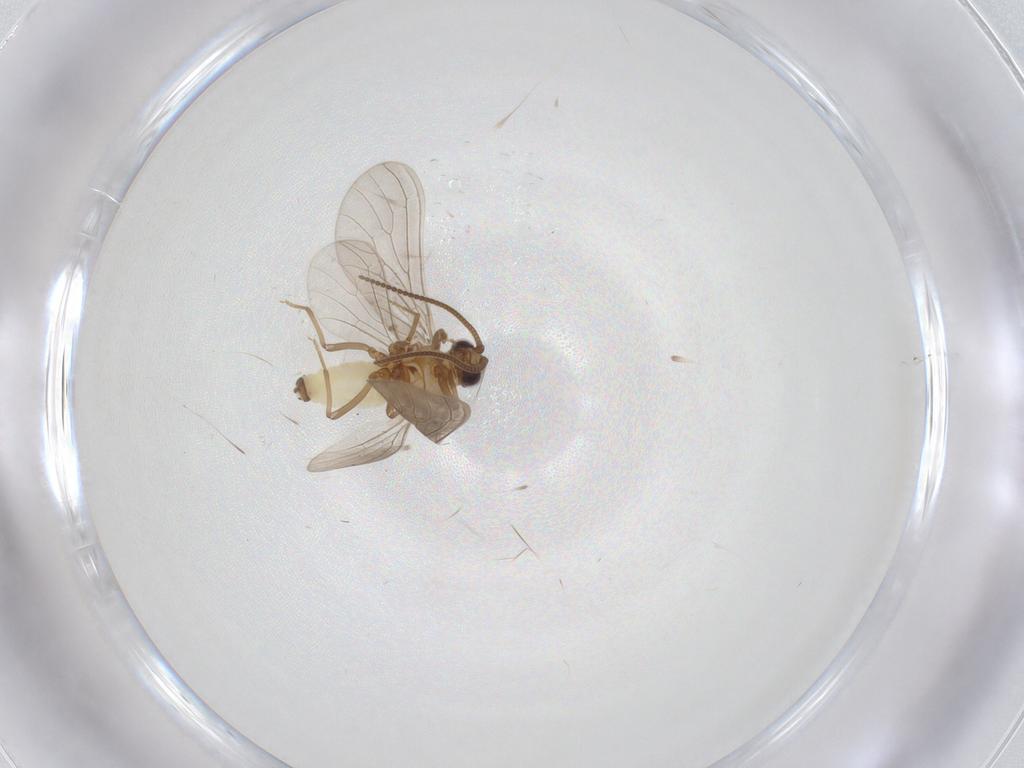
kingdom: Animalia
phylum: Arthropoda
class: Insecta
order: Neuroptera
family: Coniopterygidae
